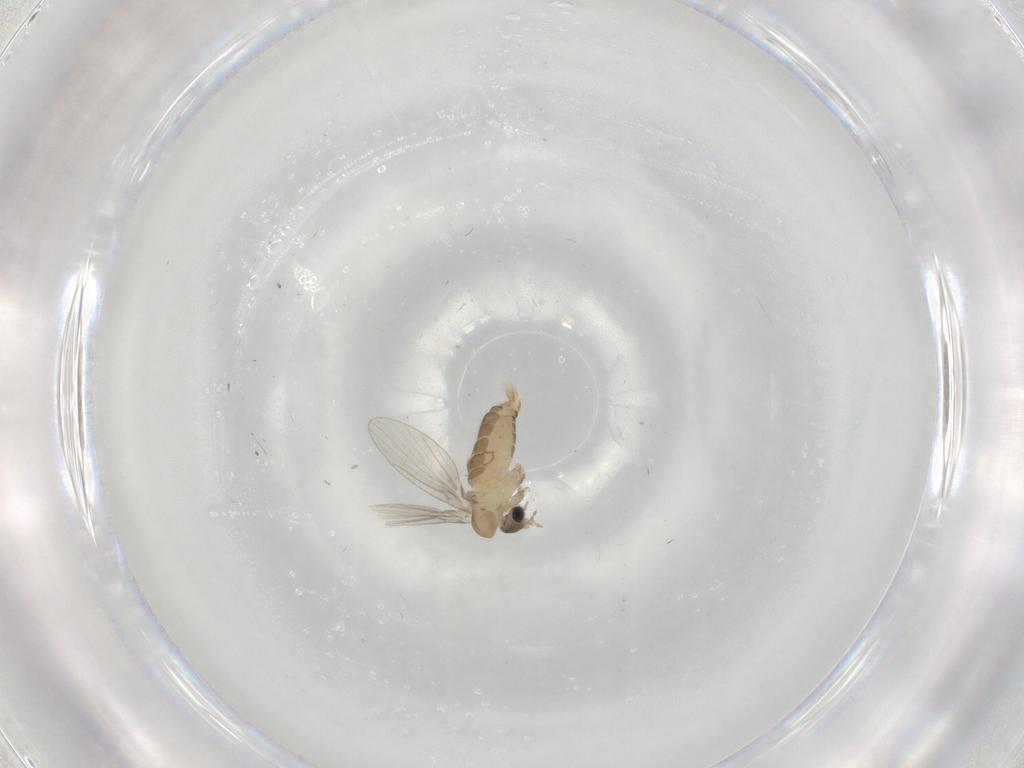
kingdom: Animalia
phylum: Arthropoda
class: Insecta
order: Diptera
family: Psychodidae
